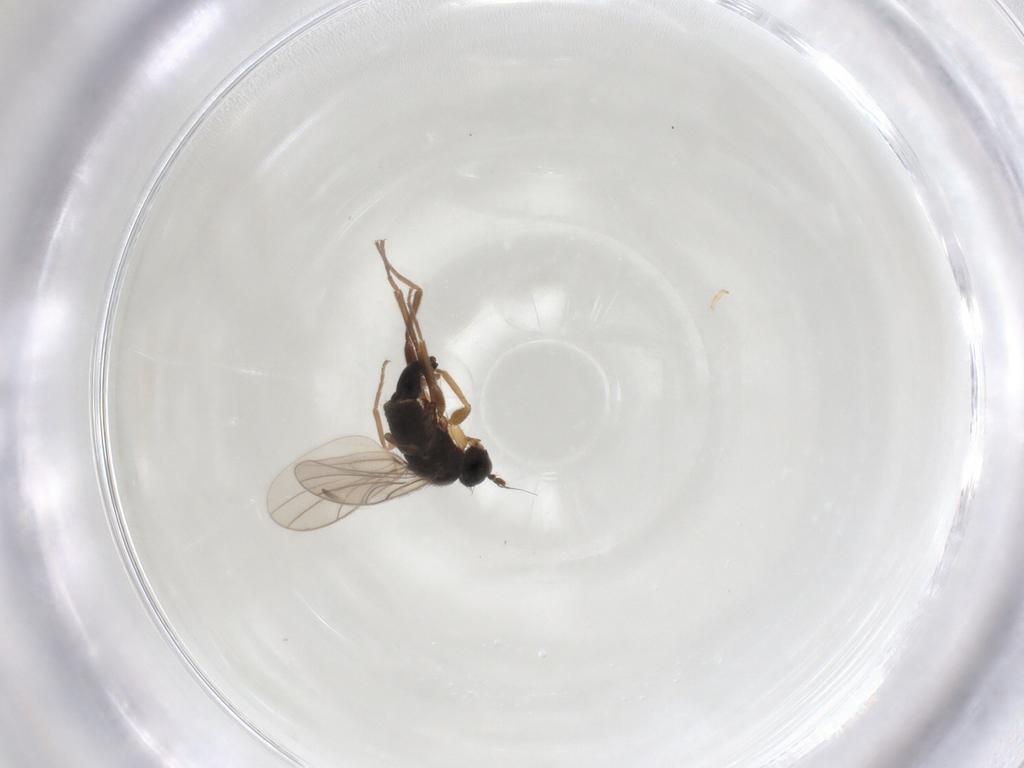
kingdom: Animalia
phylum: Arthropoda
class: Insecta
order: Diptera
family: Hybotidae
